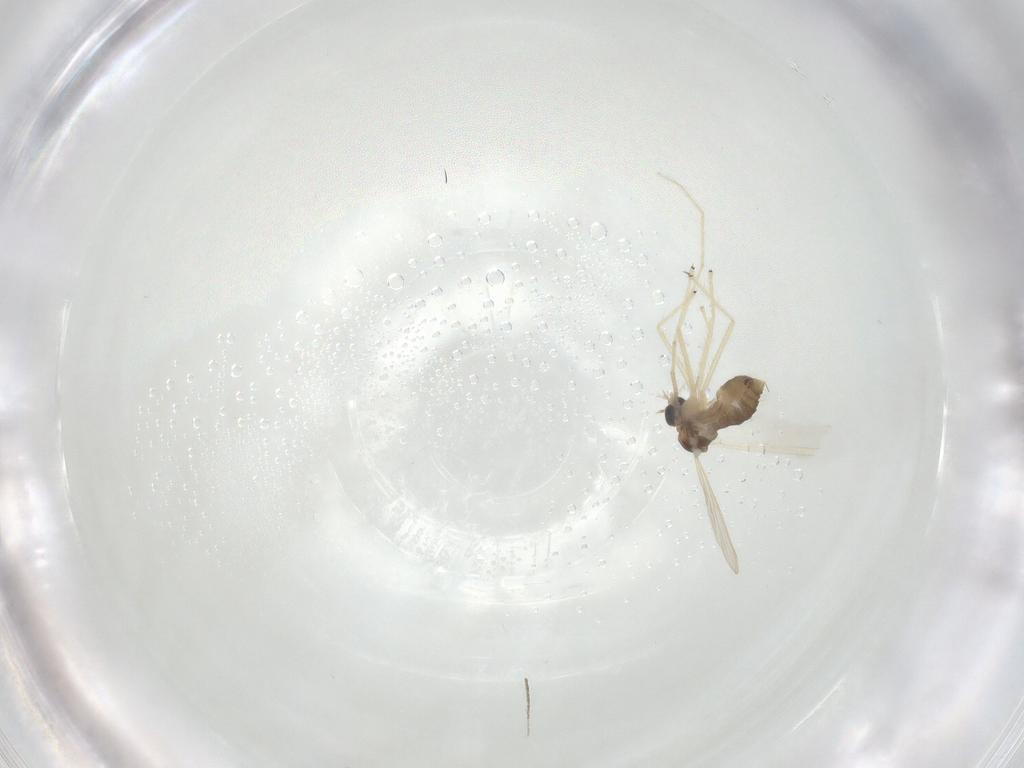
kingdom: Animalia
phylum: Arthropoda
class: Insecta
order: Diptera
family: Chironomidae
